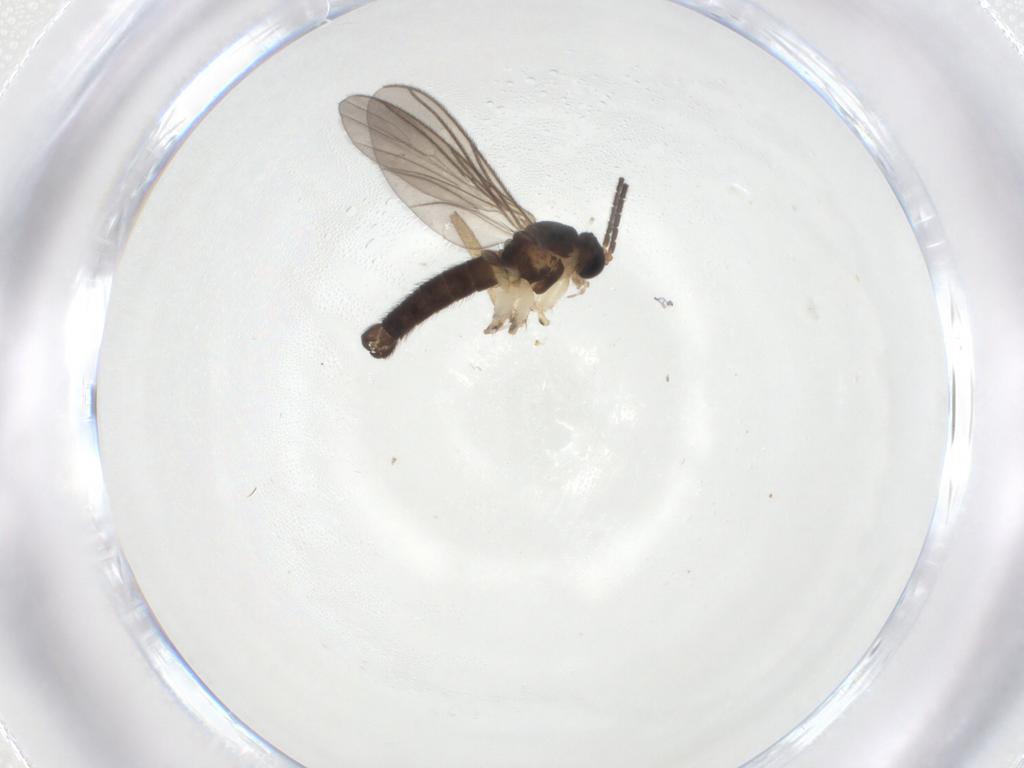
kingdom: Animalia
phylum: Arthropoda
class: Insecta
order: Diptera
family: Sciaridae
